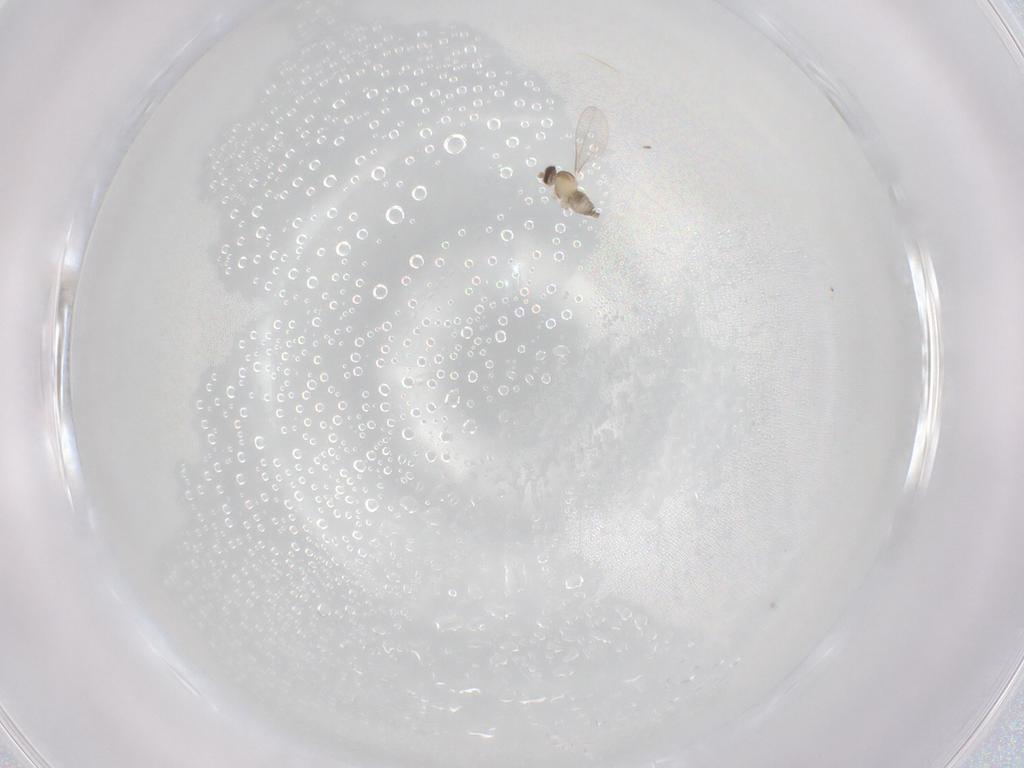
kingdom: Animalia
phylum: Arthropoda
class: Insecta
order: Diptera
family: Cecidomyiidae
